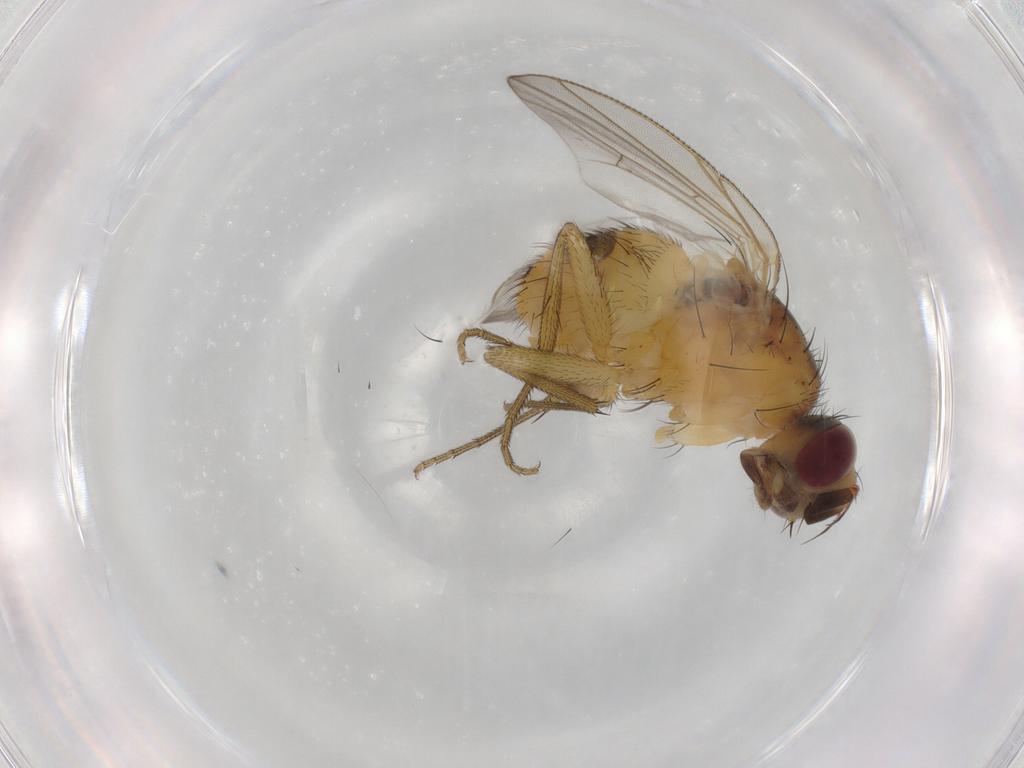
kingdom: Animalia
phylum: Arthropoda
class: Insecta
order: Diptera
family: Muscidae
